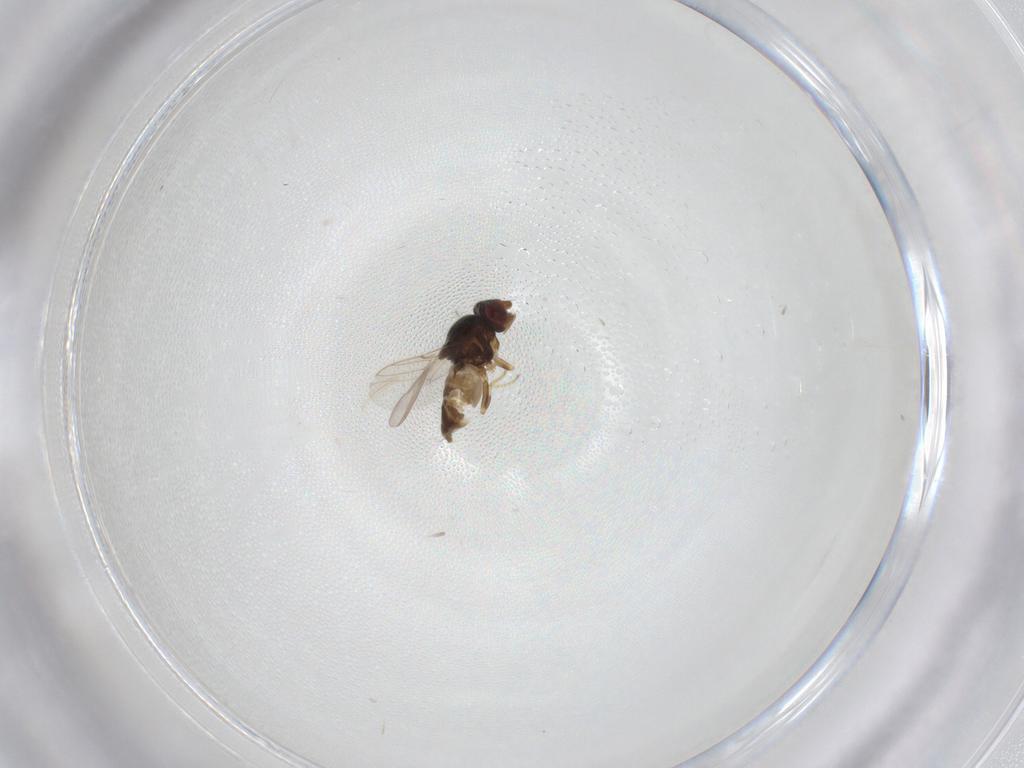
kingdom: Animalia
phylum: Arthropoda
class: Insecta
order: Diptera
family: Chloropidae
